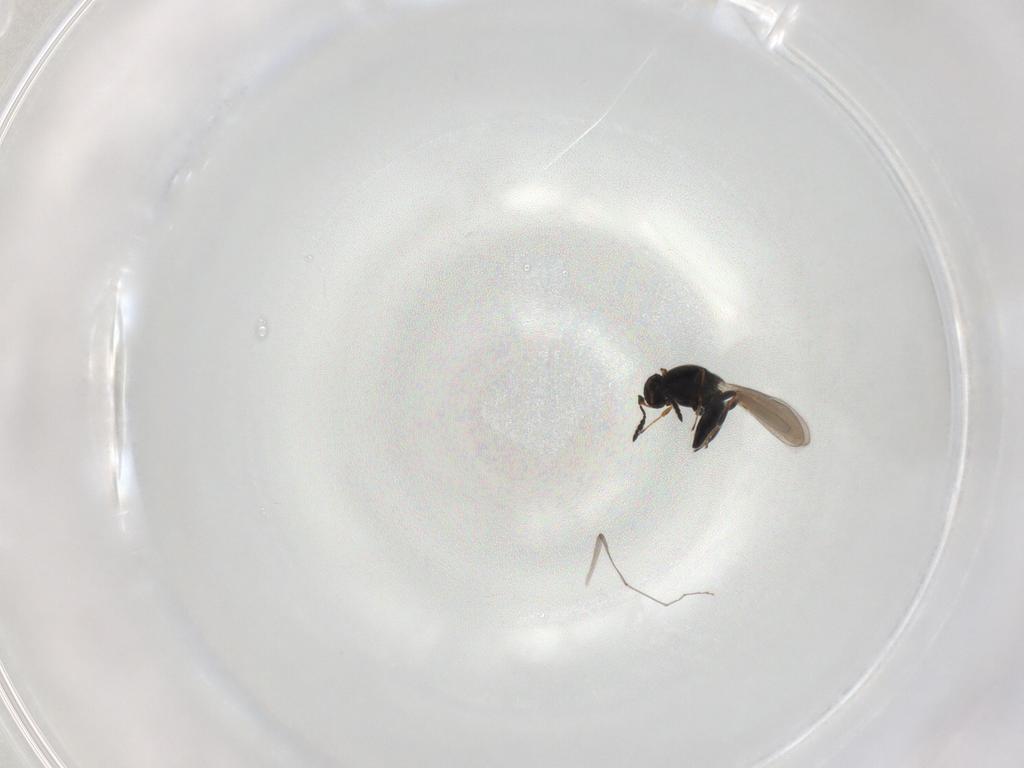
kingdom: Animalia
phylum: Arthropoda
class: Insecta
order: Hymenoptera
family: Platygastridae
